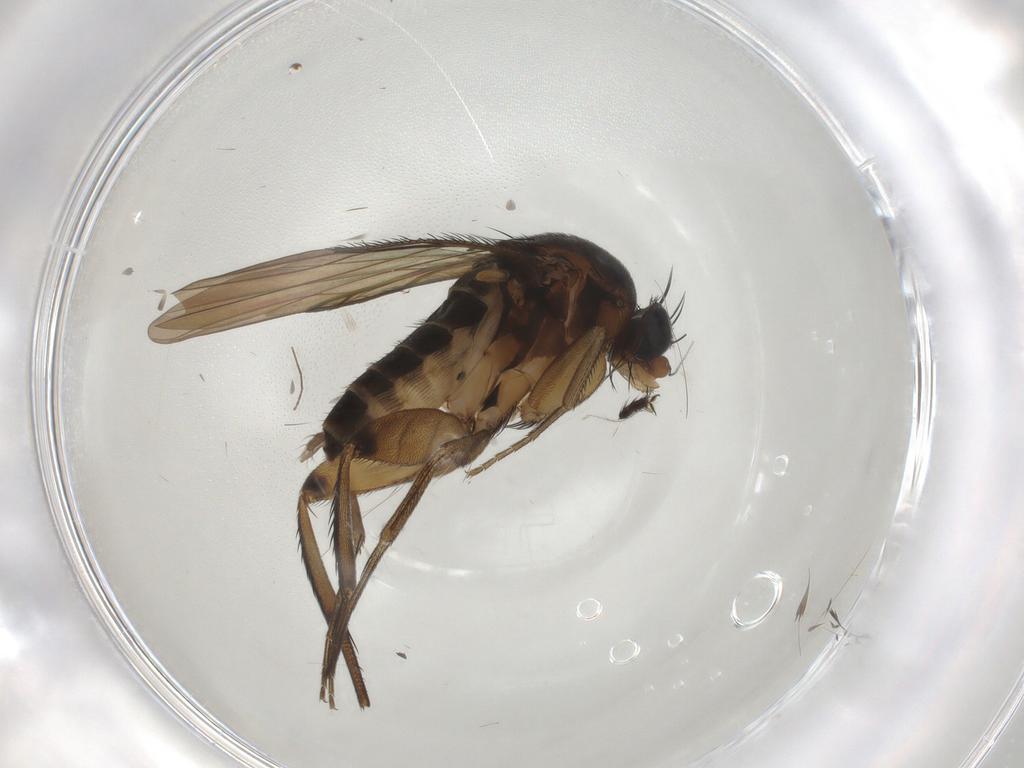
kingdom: Animalia
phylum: Arthropoda
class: Insecta
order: Diptera
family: Phoridae
